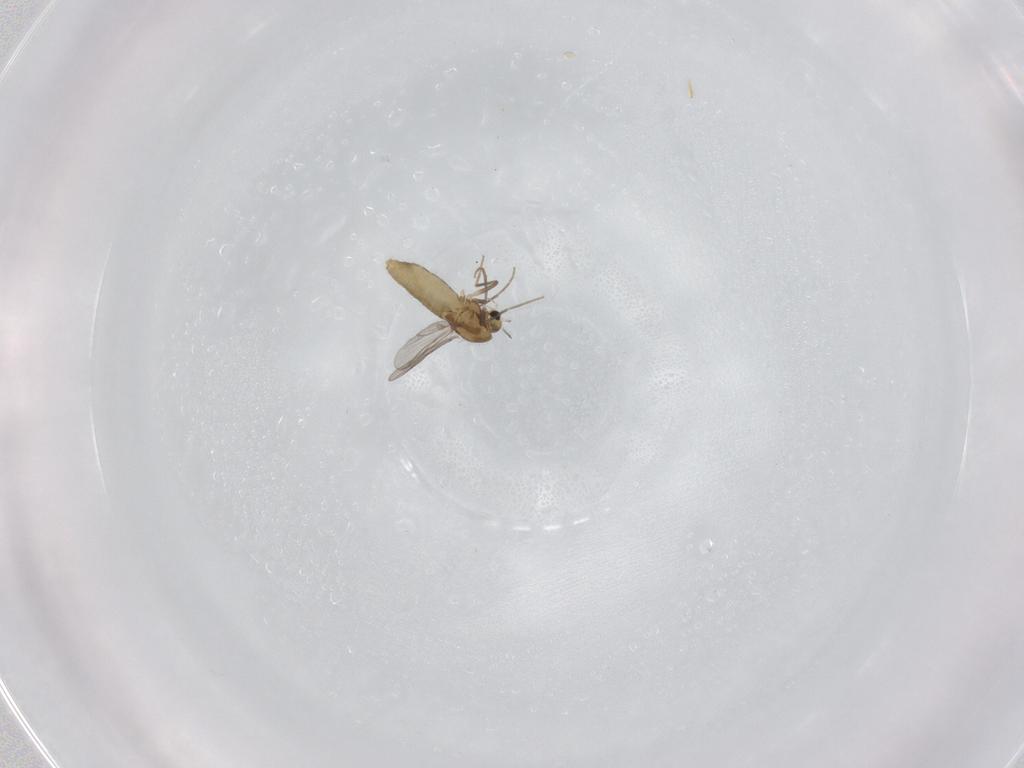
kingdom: Animalia
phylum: Arthropoda
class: Insecta
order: Diptera
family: Chironomidae
